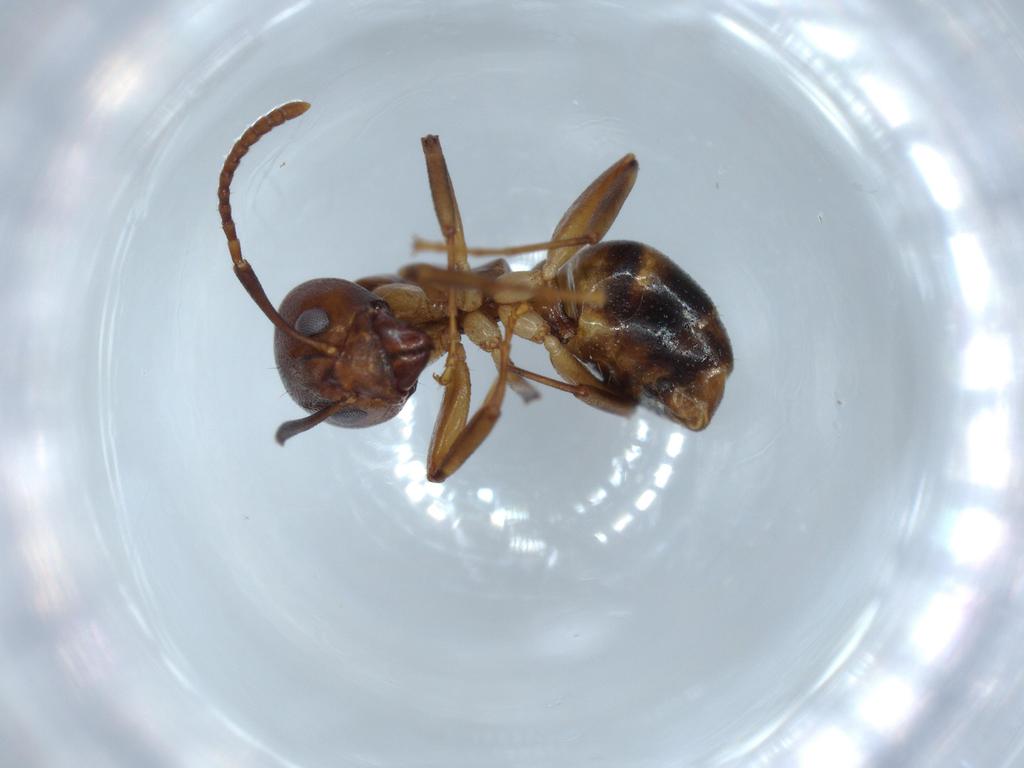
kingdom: Animalia
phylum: Arthropoda
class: Insecta
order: Hymenoptera
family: Formicidae
